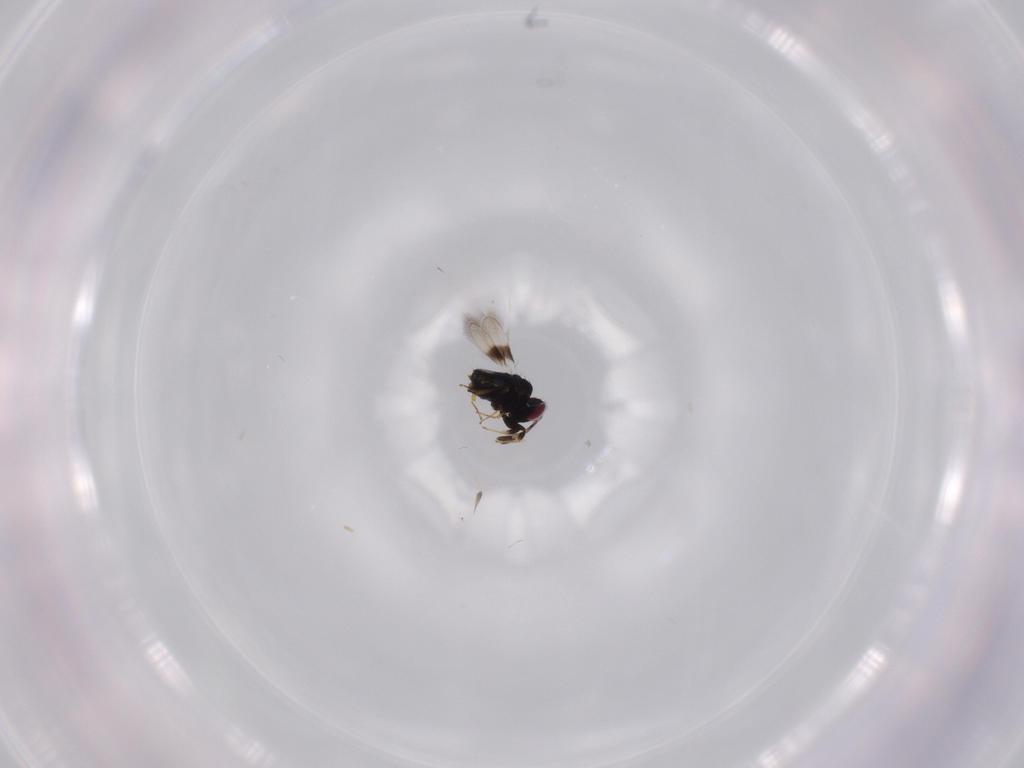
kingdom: Animalia
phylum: Arthropoda
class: Insecta
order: Hymenoptera
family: Azotidae
